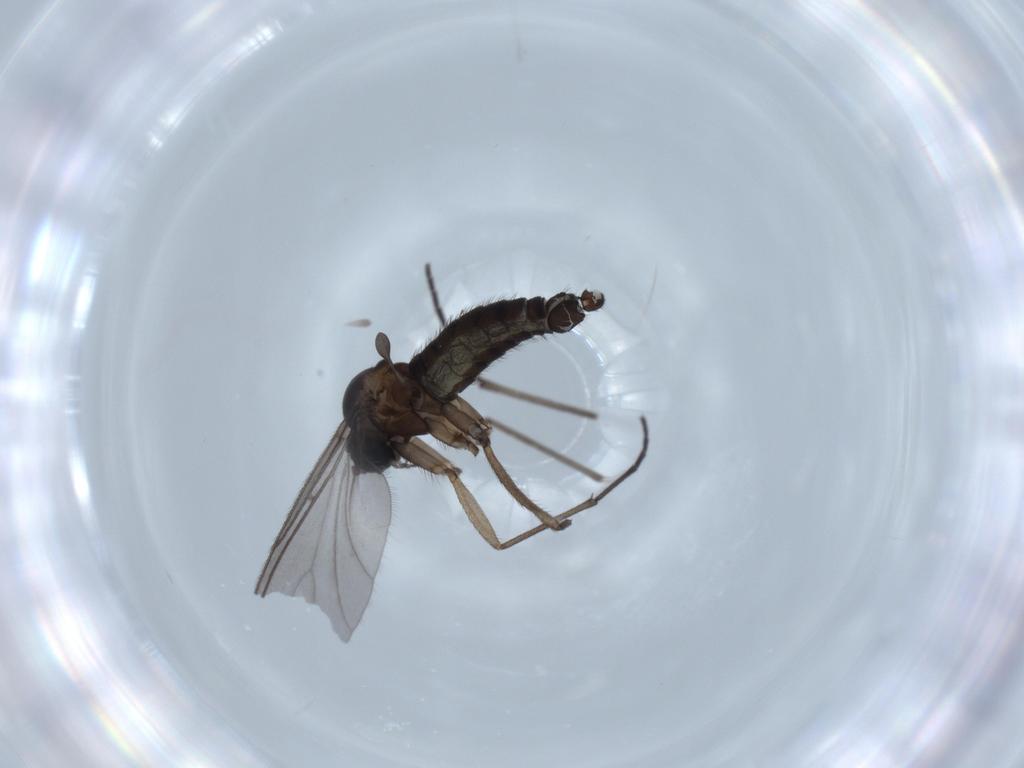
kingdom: Animalia
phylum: Arthropoda
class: Insecta
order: Diptera
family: Sciaridae
